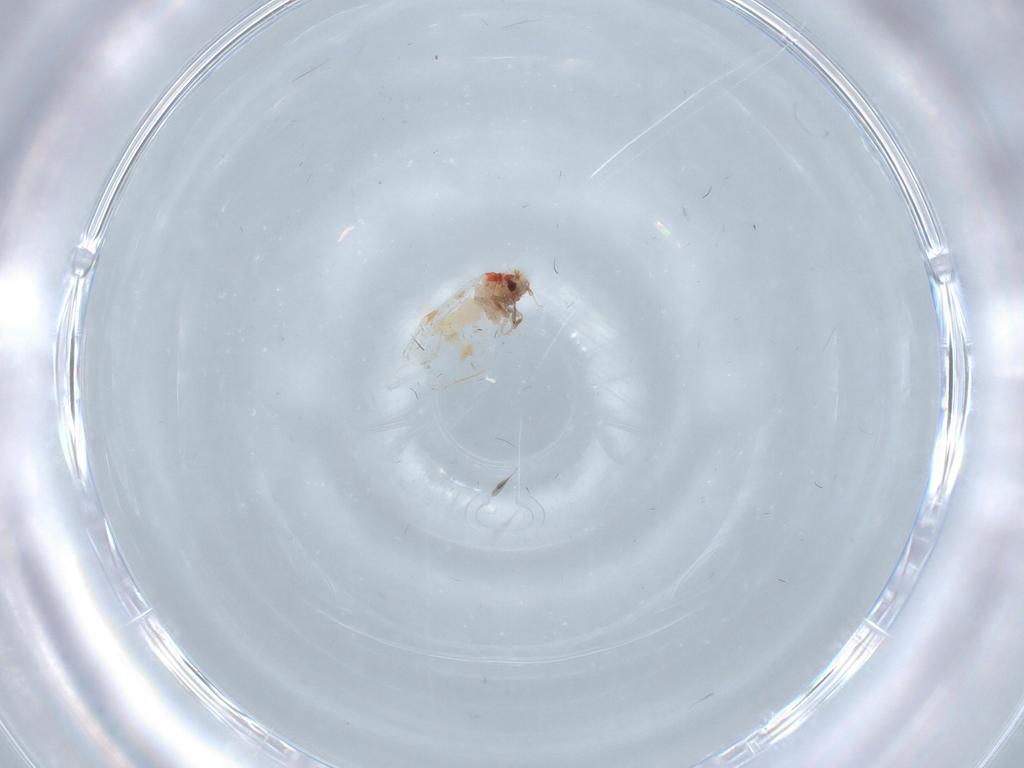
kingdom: Animalia
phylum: Arthropoda
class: Insecta
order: Hemiptera
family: Aleyrodidae
